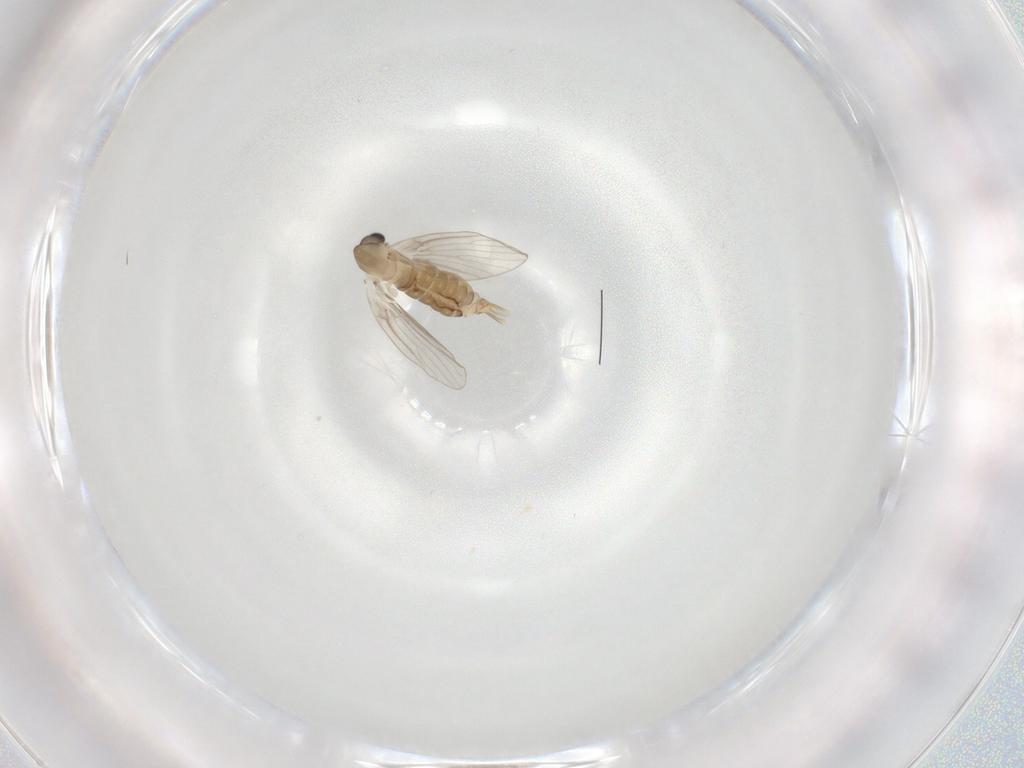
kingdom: Animalia
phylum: Arthropoda
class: Insecta
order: Diptera
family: Psychodidae
